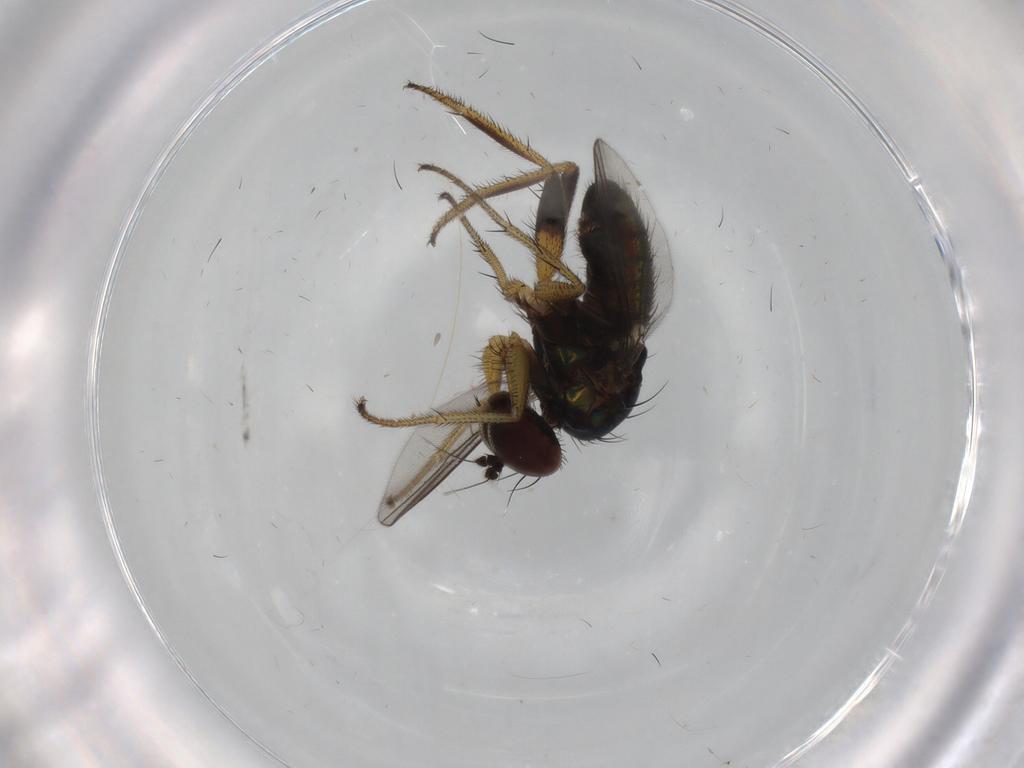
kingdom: Animalia
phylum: Arthropoda
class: Insecta
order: Diptera
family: Dolichopodidae
